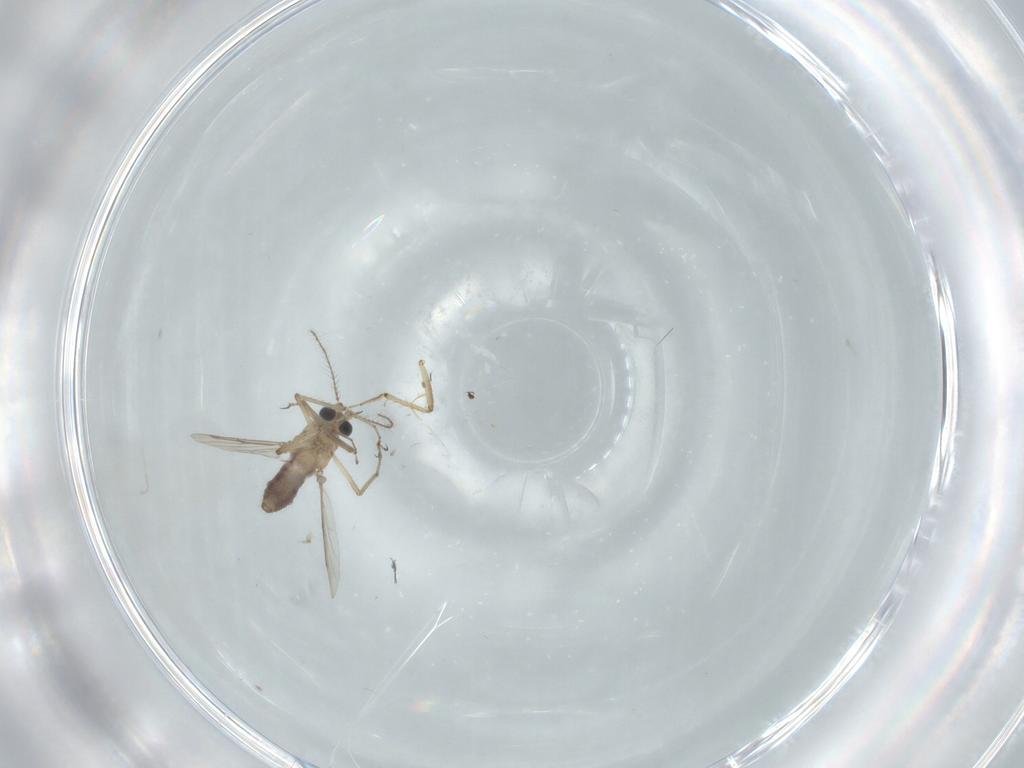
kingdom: Animalia
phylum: Arthropoda
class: Insecta
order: Diptera
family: Ceratopogonidae
